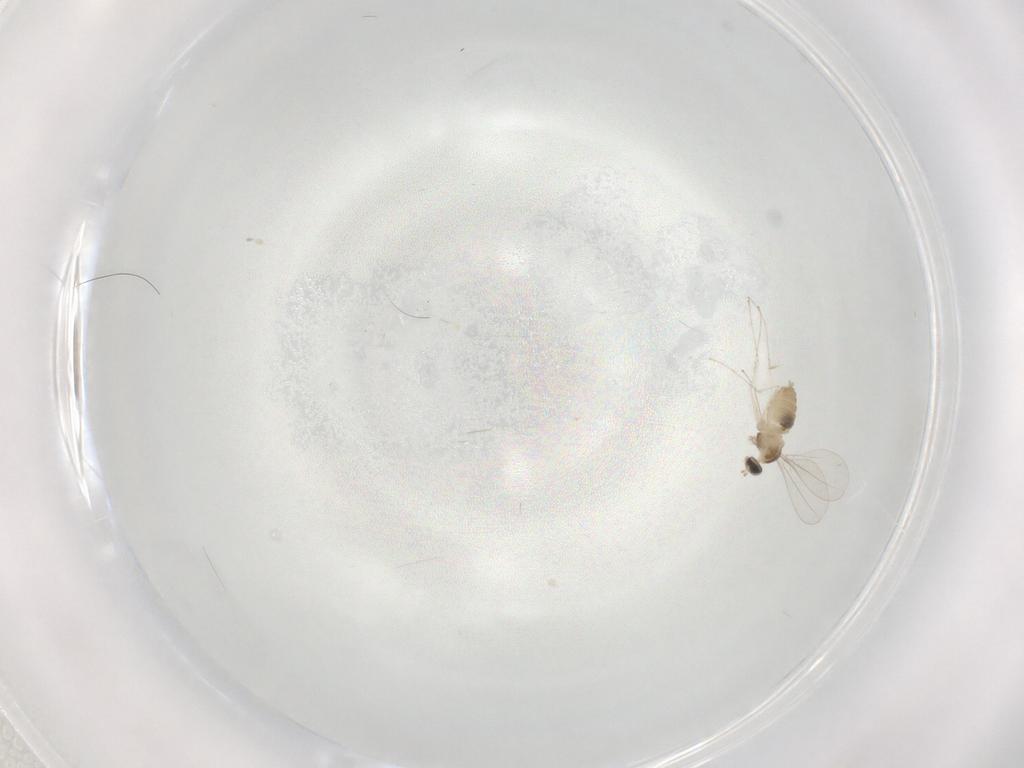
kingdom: Animalia
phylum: Arthropoda
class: Insecta
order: Diptera
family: Cecidomyiidae
